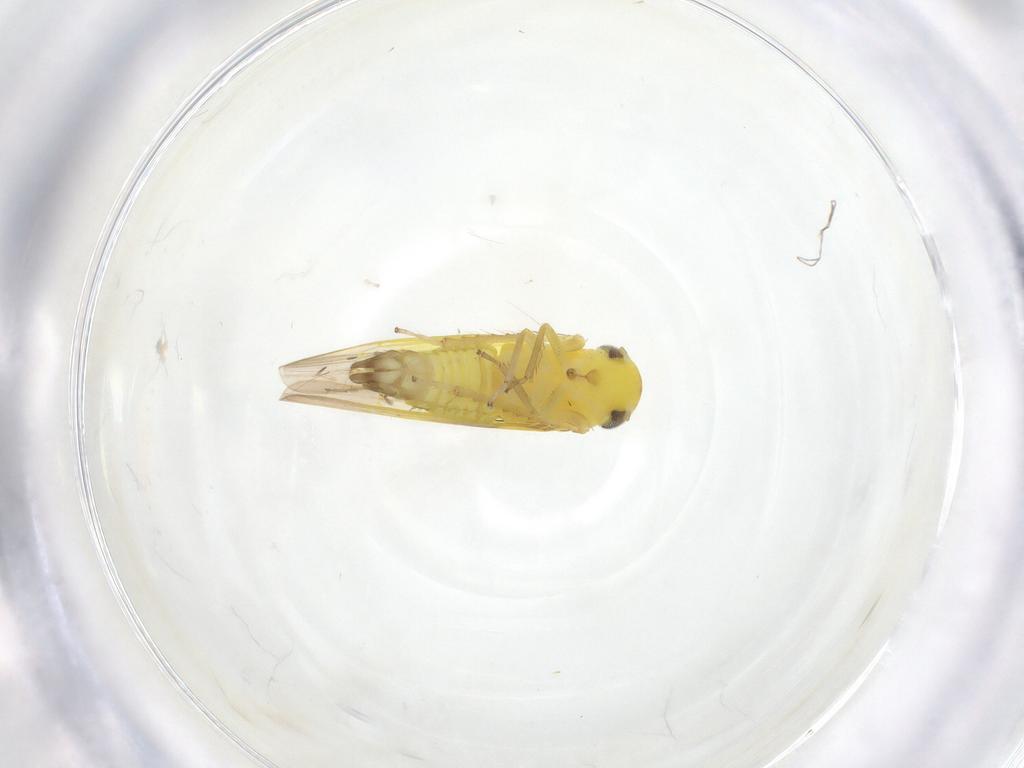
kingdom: Animalia
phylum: Arthropoda
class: Insecta
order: Hemiptera
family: Cicadellidae
